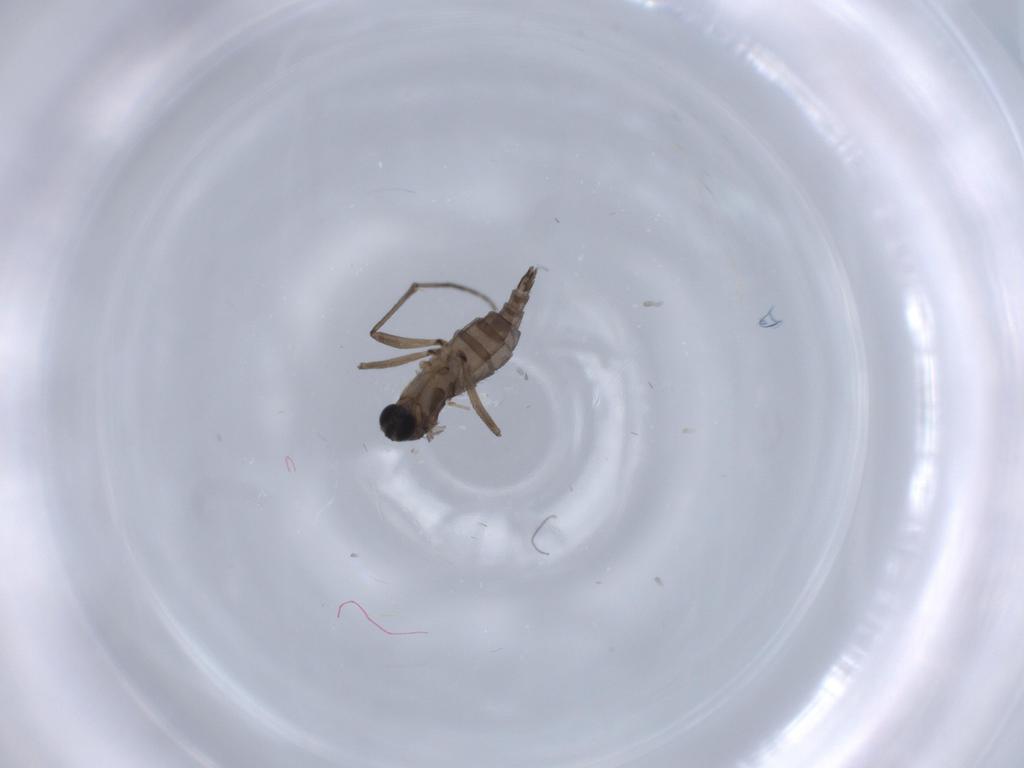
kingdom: Animalia
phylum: Arthropoda
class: Insecta
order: Diptera
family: Sciaridae
